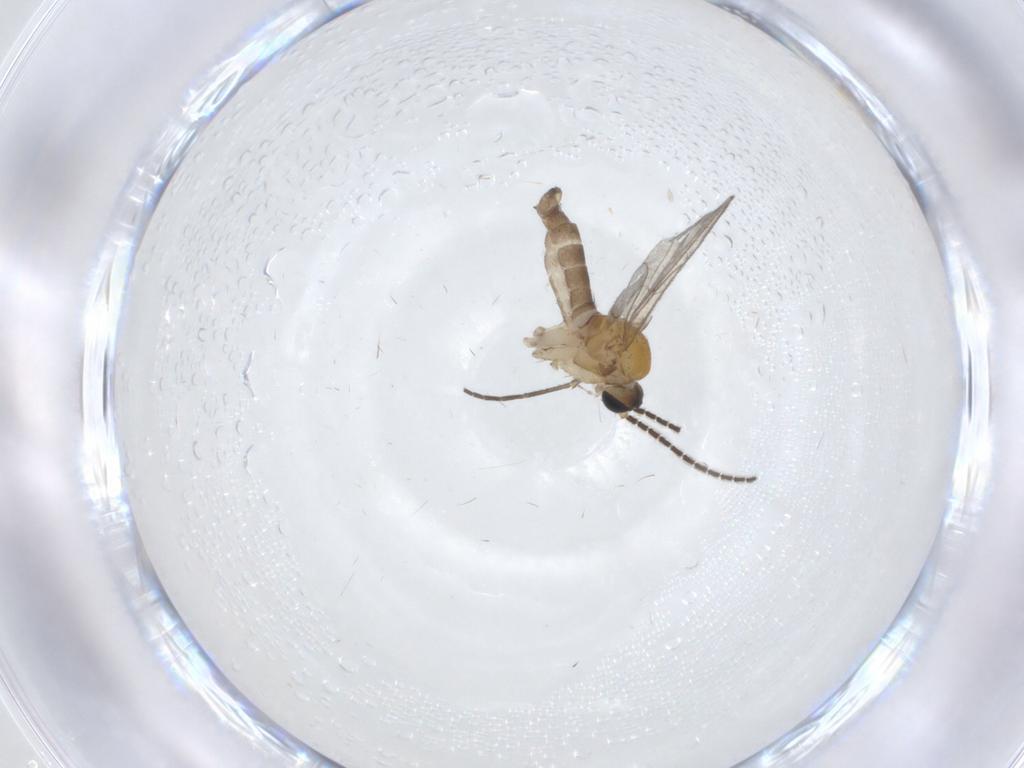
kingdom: Animalia
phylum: Arthropoda
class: Insecta
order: Diptera
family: Sciaridae
